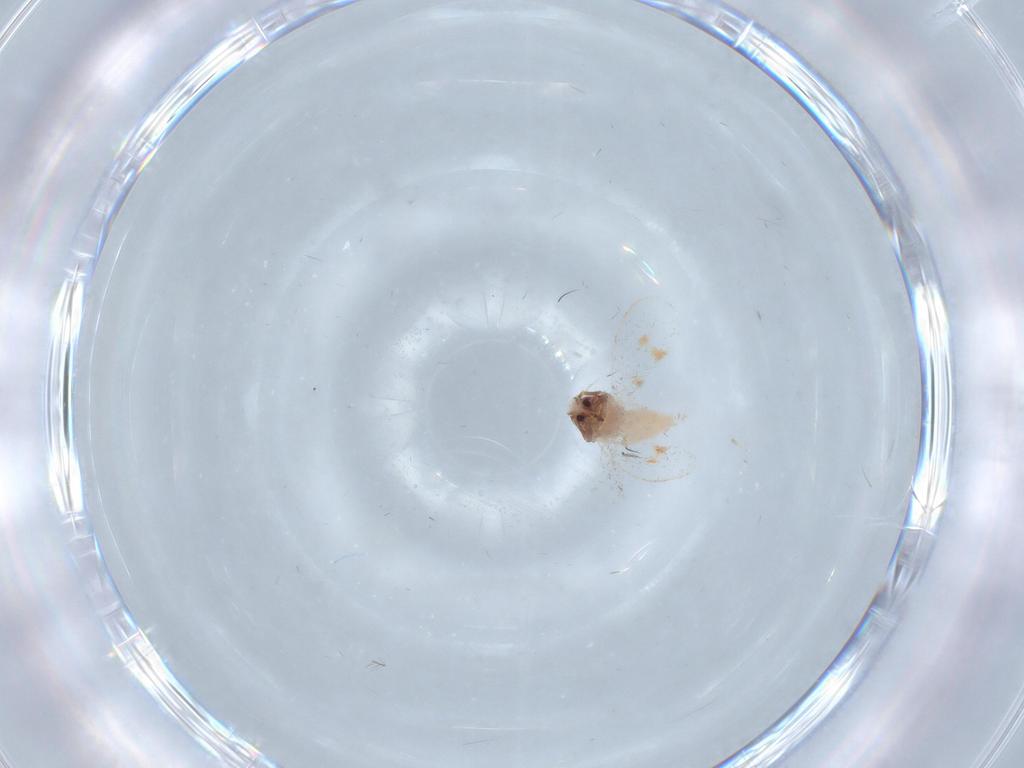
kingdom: Animalia
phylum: Arthropoda
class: Insecta
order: Hemiptera
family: Aleyrodidae
